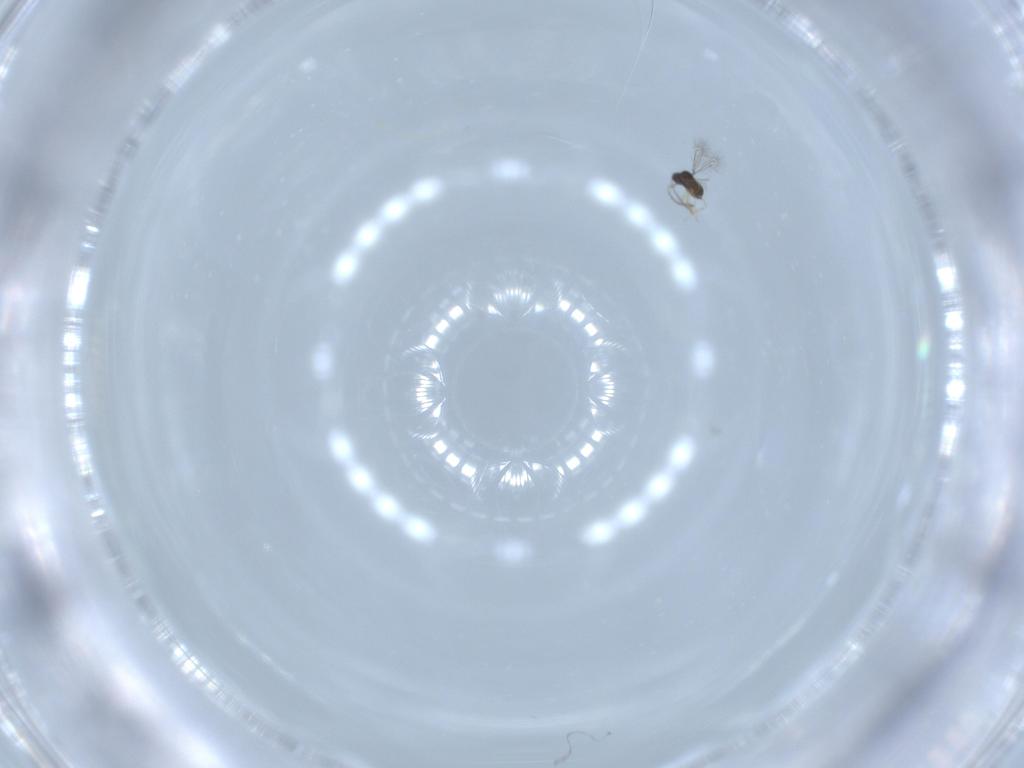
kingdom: Animalia
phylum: Arthropoda
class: Insecta
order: Hymenoptera
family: Mymaridae
